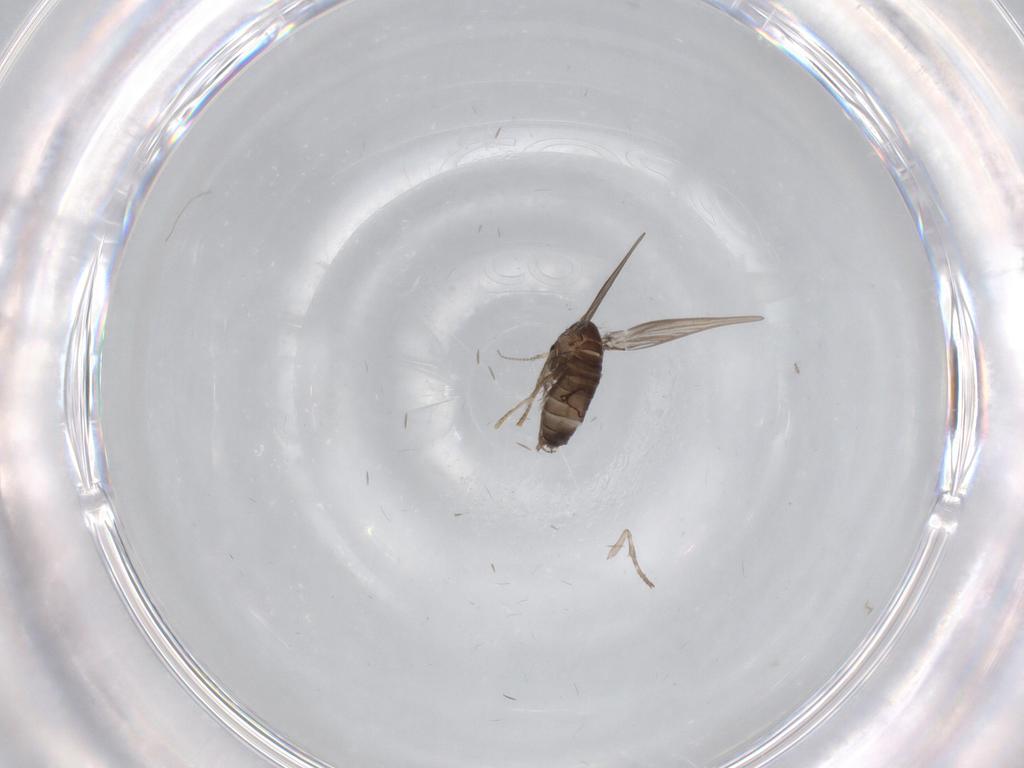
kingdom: Animalia
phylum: Arthropoda
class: Insecta
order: Diptera
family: Psychodidae
